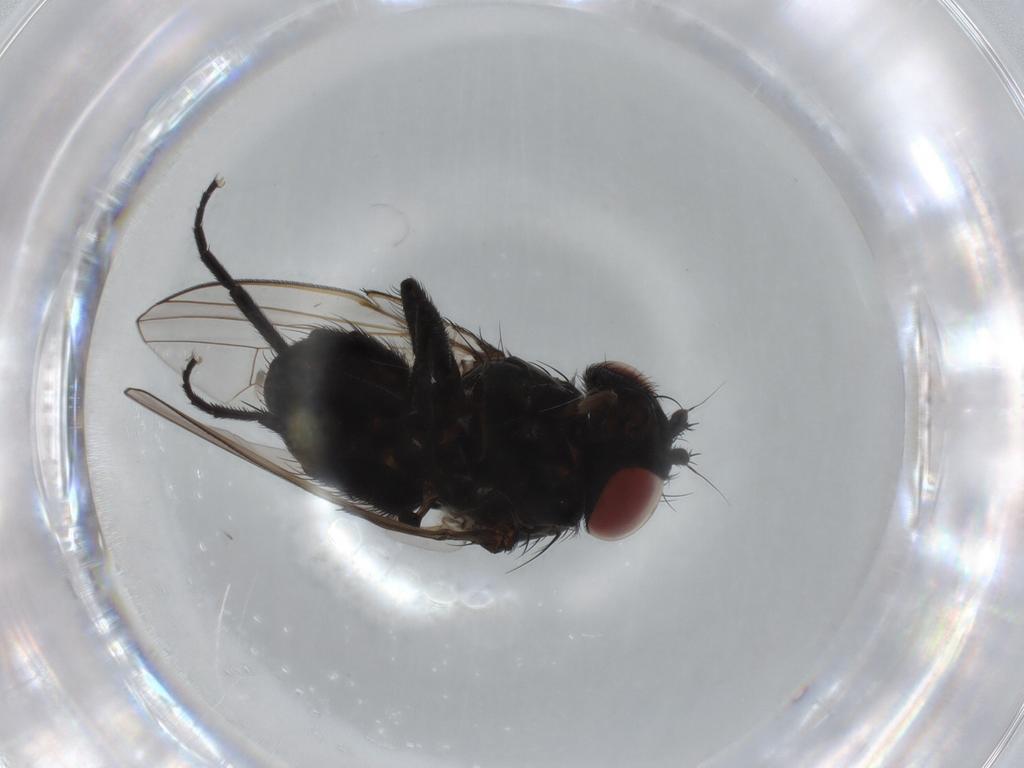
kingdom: Animalia
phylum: Arthropoda
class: Insecta
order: Diptera
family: Milichiidae
